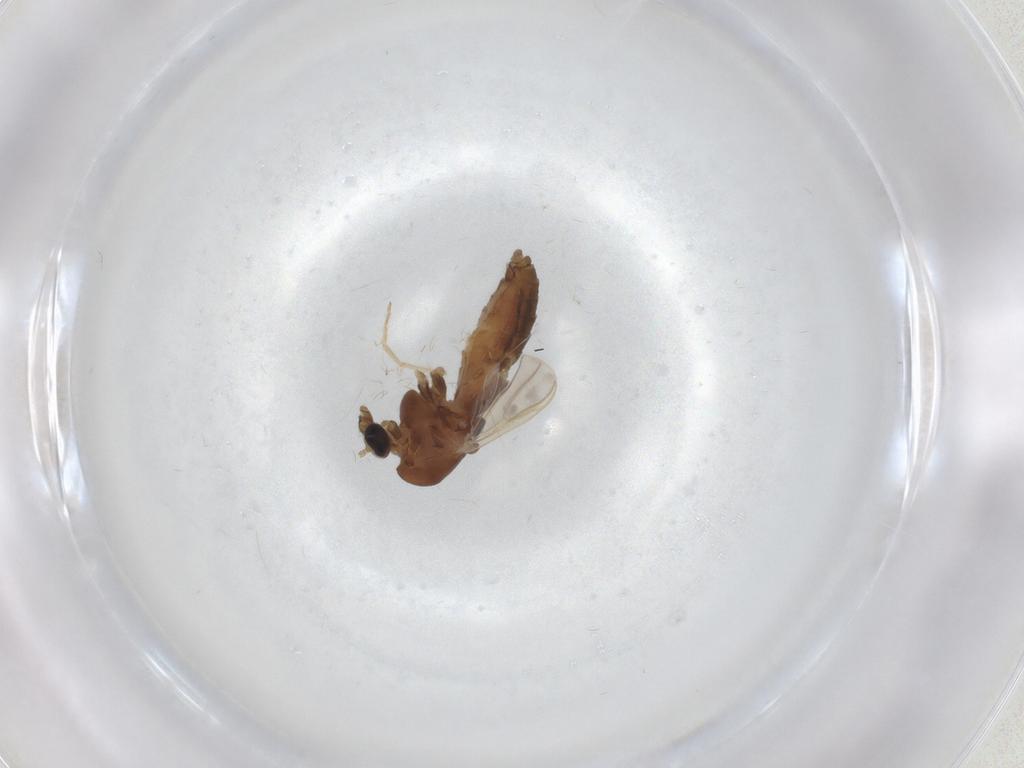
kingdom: Animalia
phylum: Arthropoda
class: Insecta
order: Diptera
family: Chironomidae
